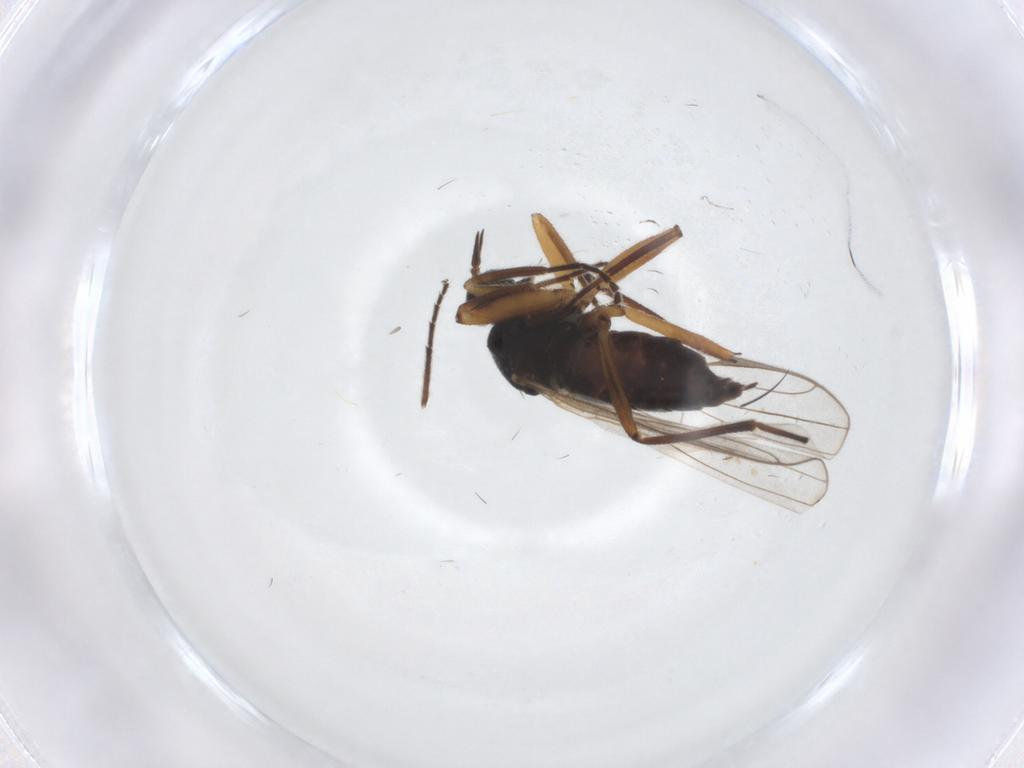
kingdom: Animalia
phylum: Arthropoda
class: Insecta
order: Diptera
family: Hybotidae
